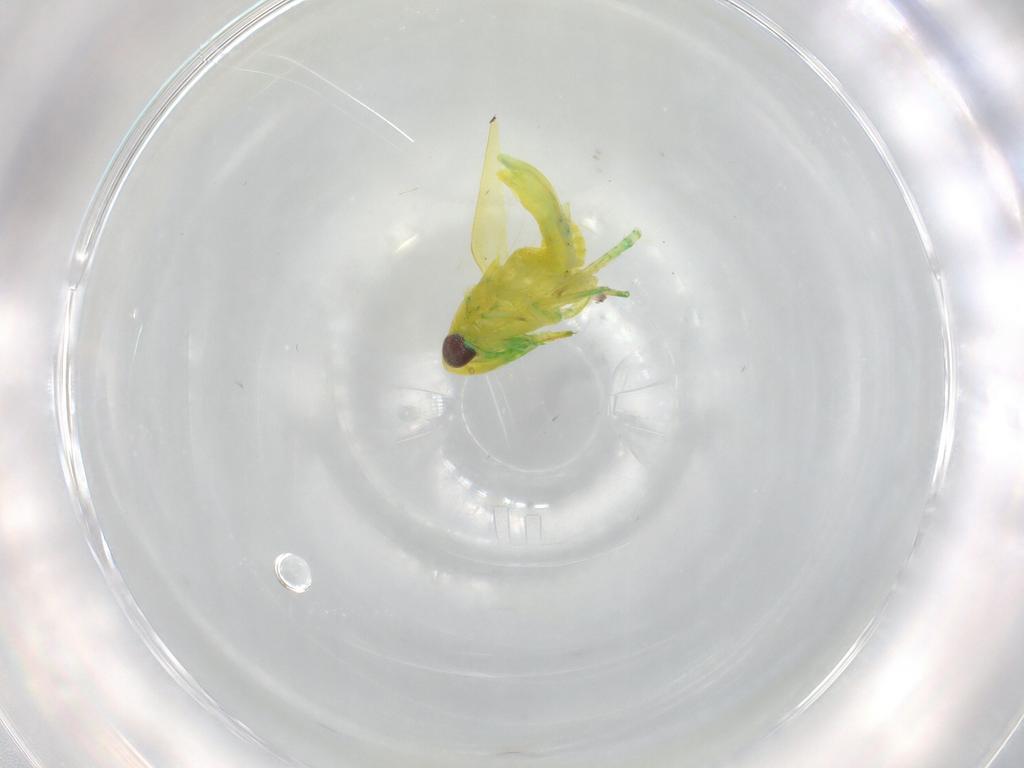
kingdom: Animalia
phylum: Arthropoda
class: Insecta
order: Hemiptera
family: Cicadellidae
